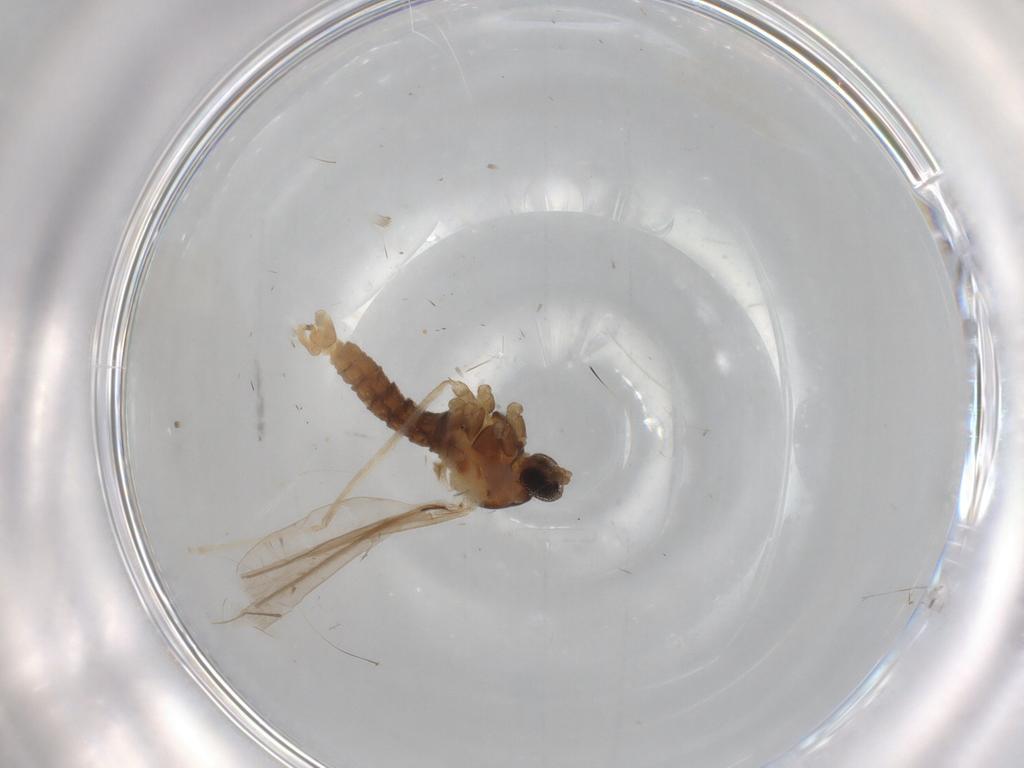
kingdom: Animalia
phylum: Arthropoda
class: Insecta
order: Diptera
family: Cecidomyiidae
